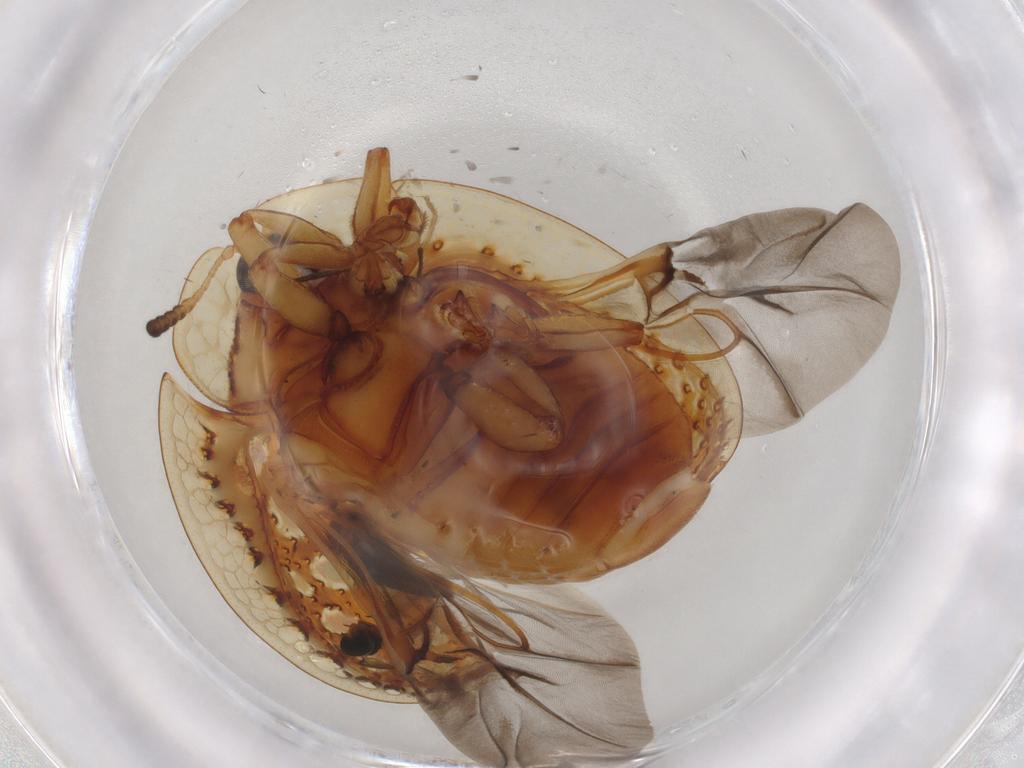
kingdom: Animalia
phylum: Arthropoda
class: Insecta
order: Coleoptera
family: Chrysomelidae
